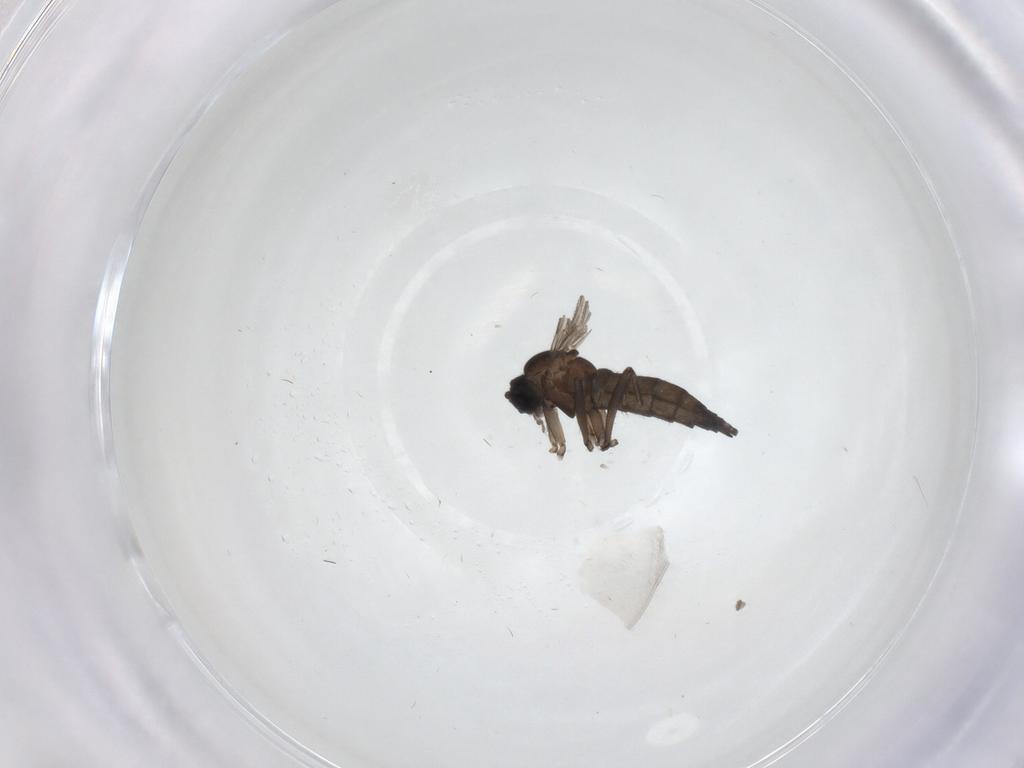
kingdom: Animalia
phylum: Arthropoda
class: Insecta
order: Diptera
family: Sciaridae
